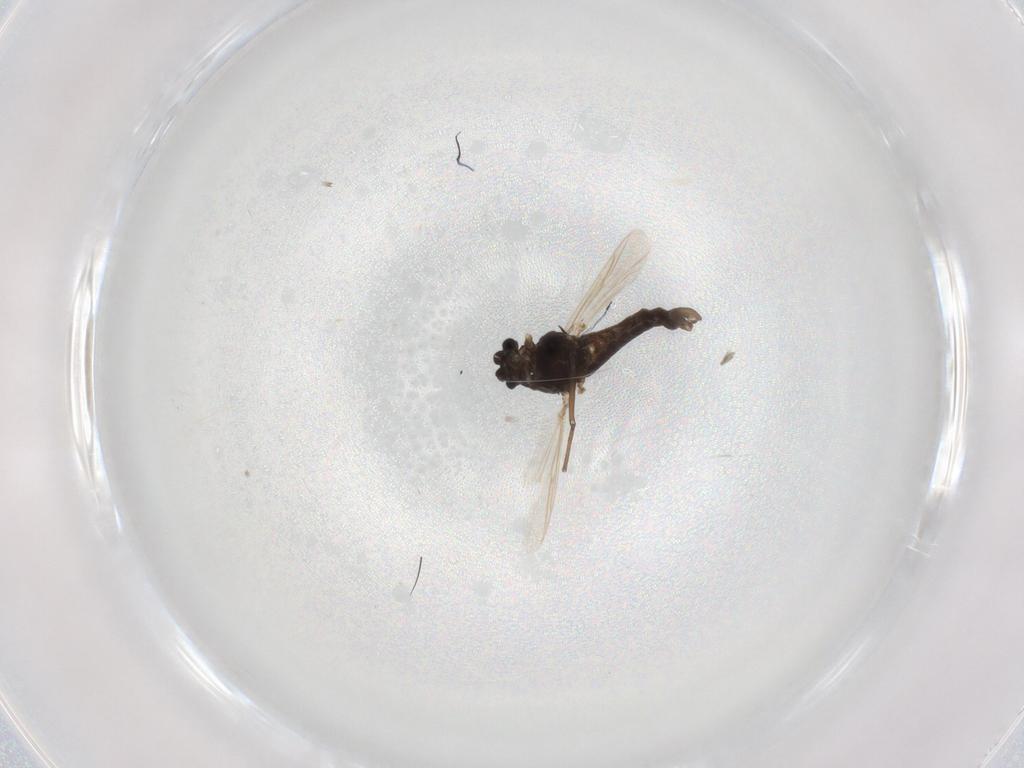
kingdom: Animalia
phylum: Arthropoda
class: Insecta
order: Diptera
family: Chironomidae
